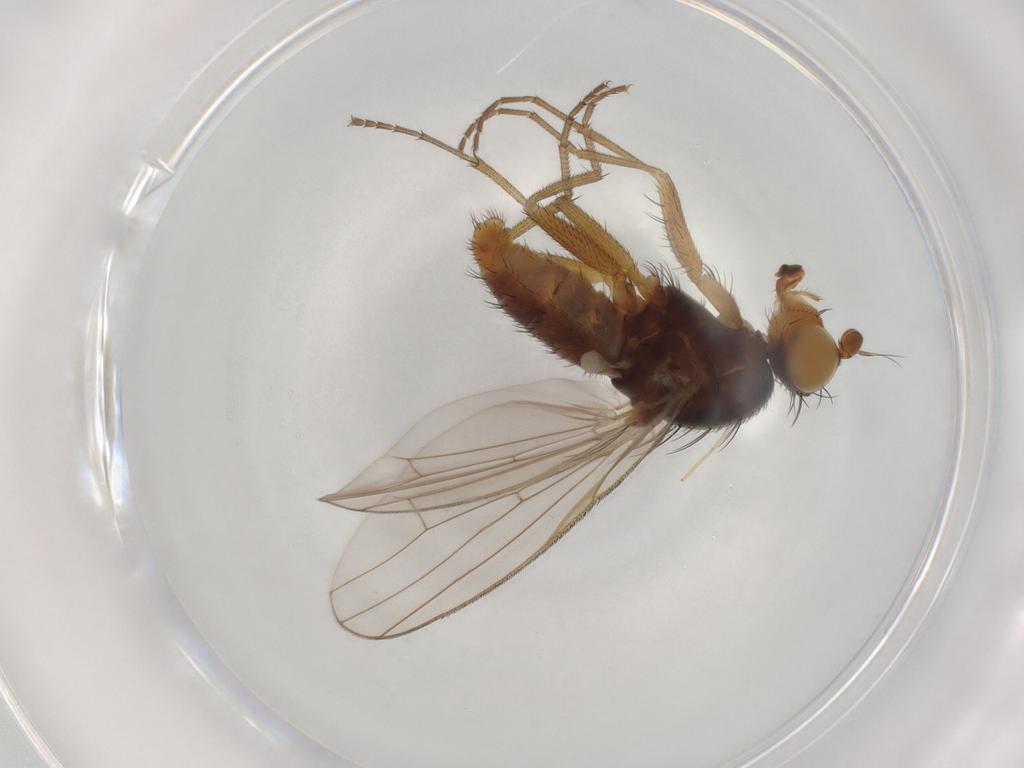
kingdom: Animalia
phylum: Arthropoda
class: Insecta
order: Diptera
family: Heleomyzidae
